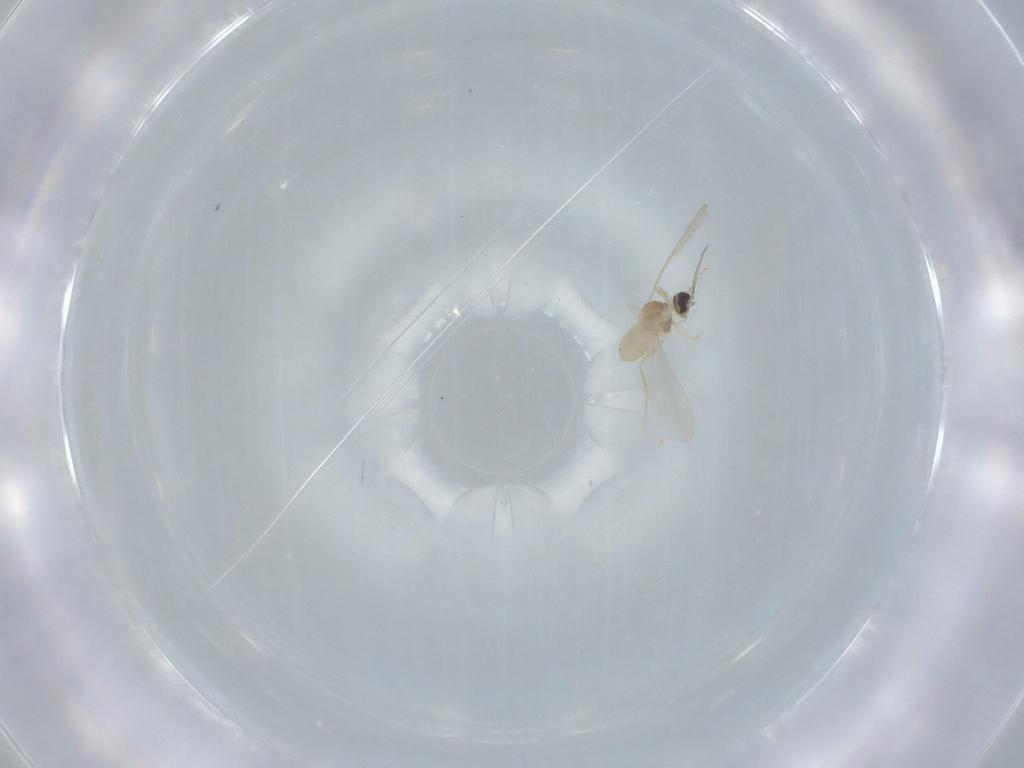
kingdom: Animalia
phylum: Arthropoda
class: Insecta
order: Diptera
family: Cecidomyiidae
